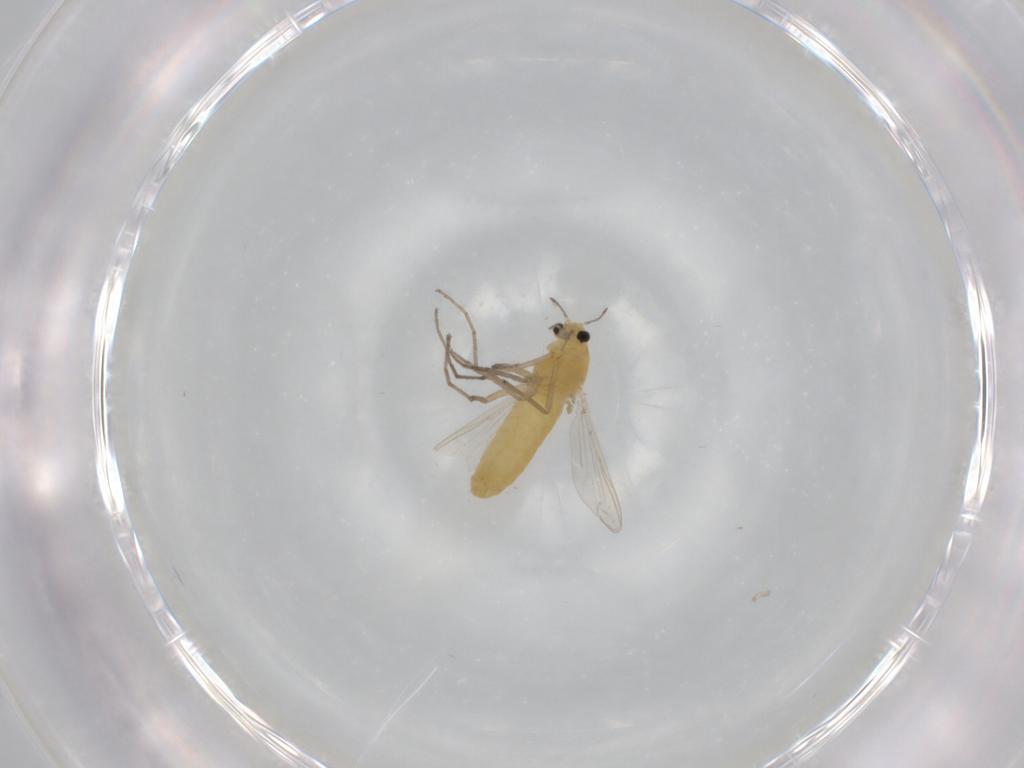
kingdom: Animalia
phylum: Arthropoda
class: Insecta
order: Diptera
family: Chironomidae
